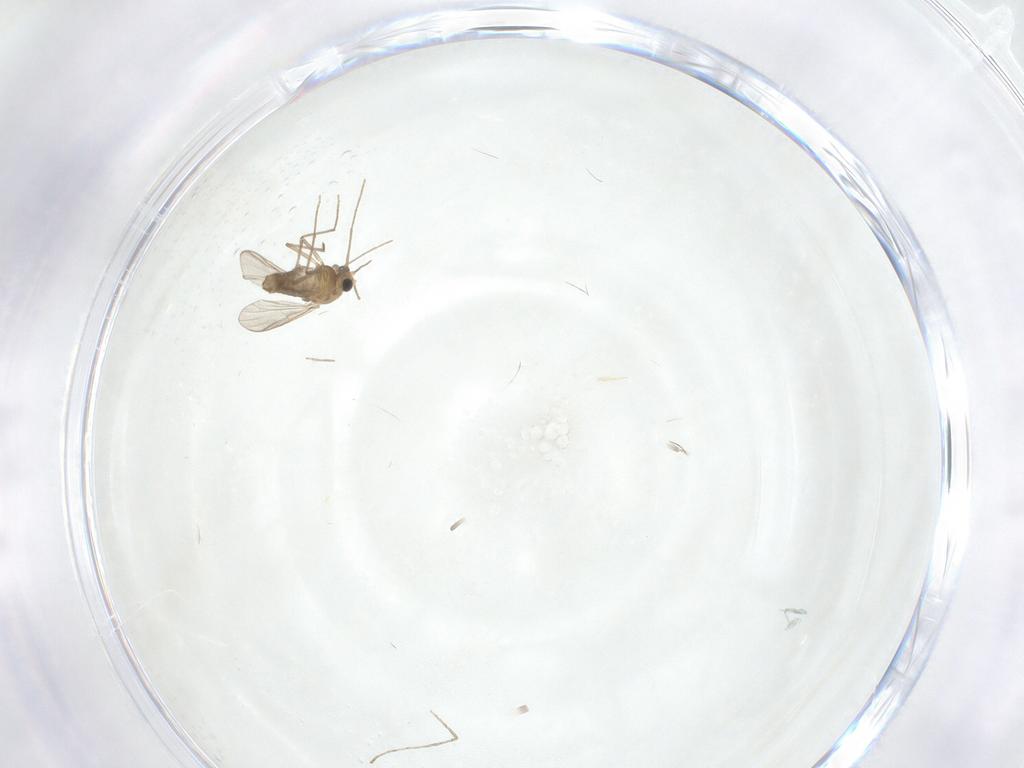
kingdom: Animalia
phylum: Arthropoda
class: Insecta
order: Diptera
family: Chironomidae
